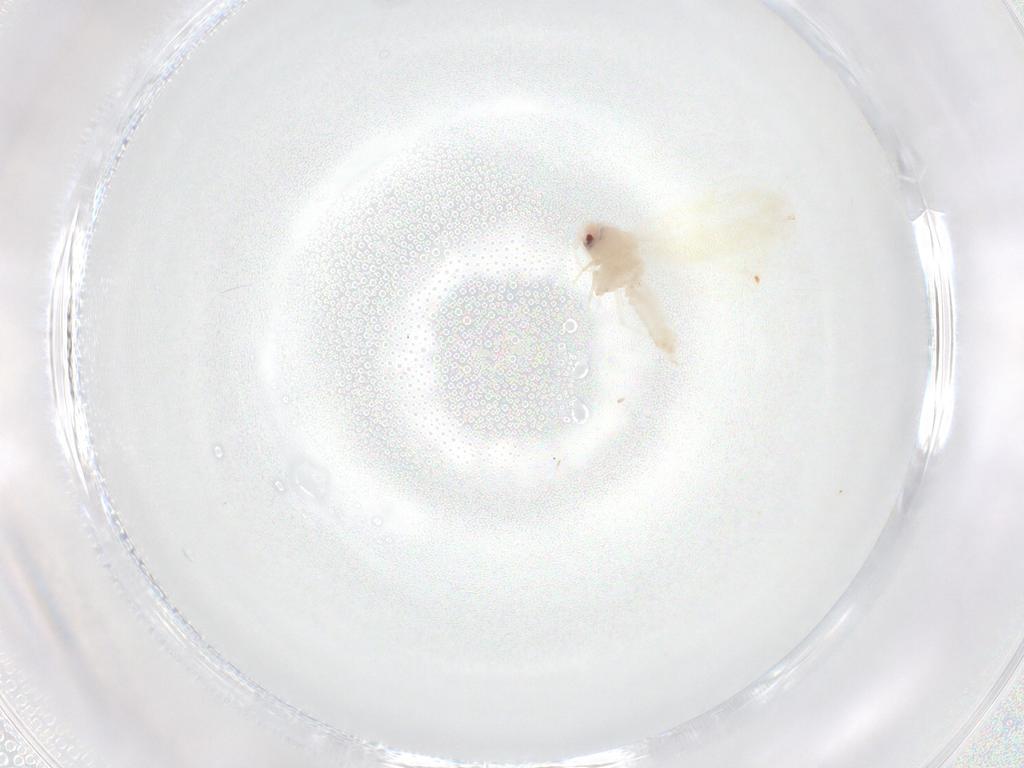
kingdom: Animalia
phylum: Arthropoda
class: Insecta
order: Hemiptera
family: Aleyrodidae
